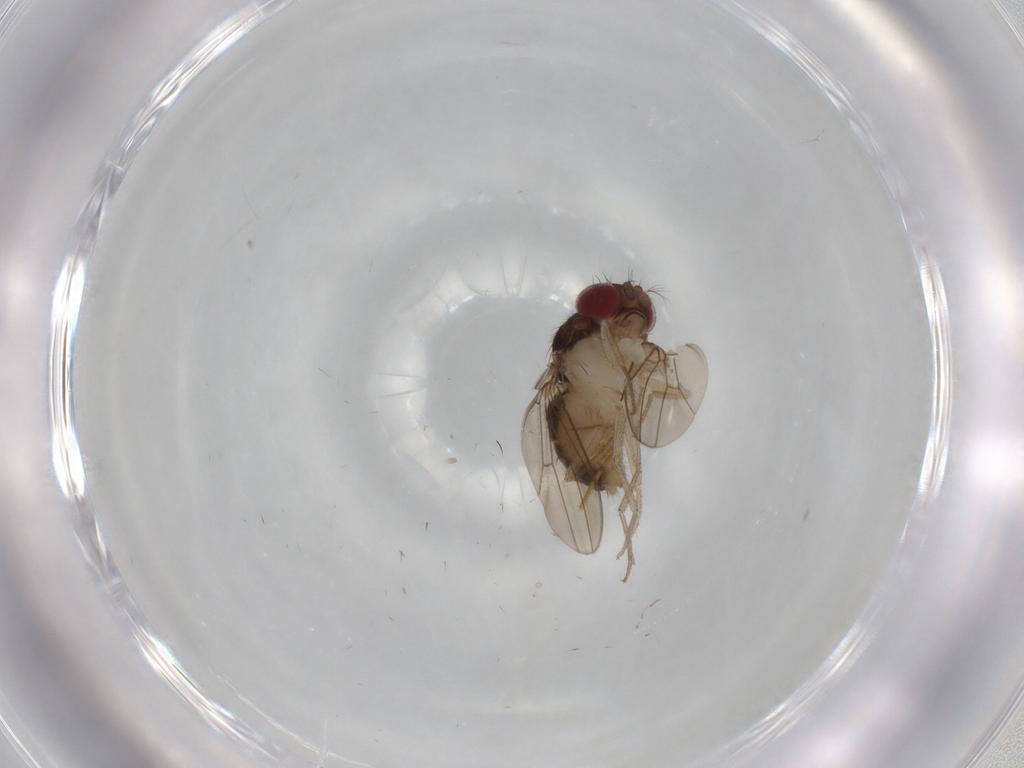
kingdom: Animalia
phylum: Arthropoda
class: Insecta
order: Diptera
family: Drosophilidae
